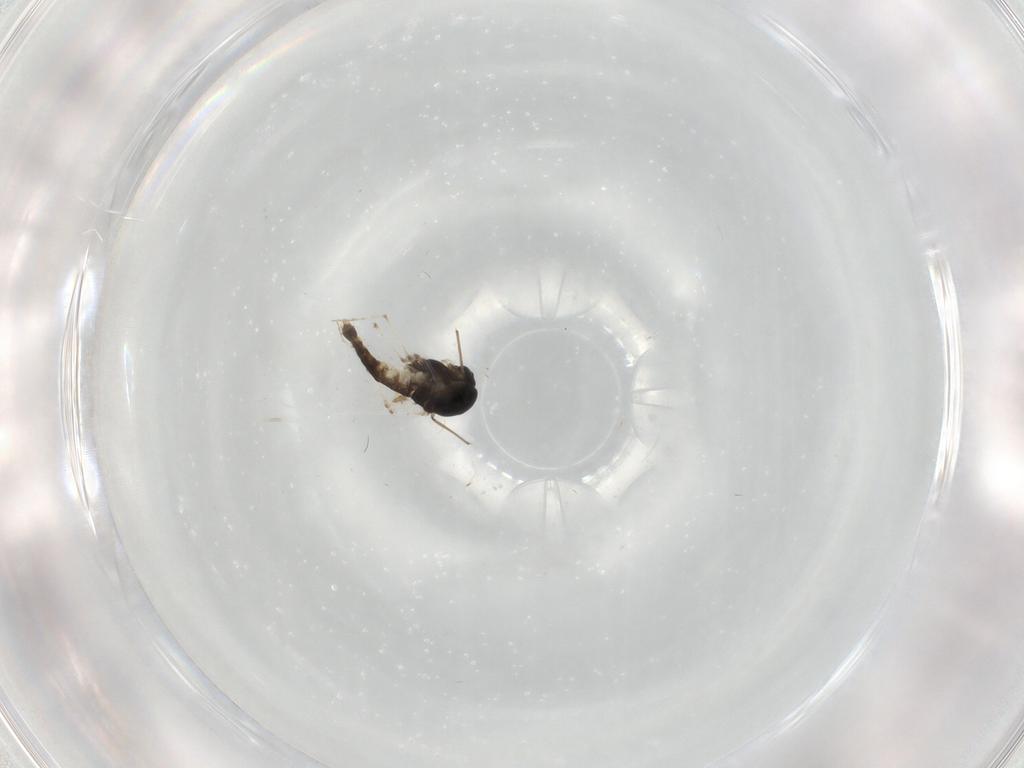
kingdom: Animalia
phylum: Arthropoda
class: Insecta
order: Diptera
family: Chironomidae
